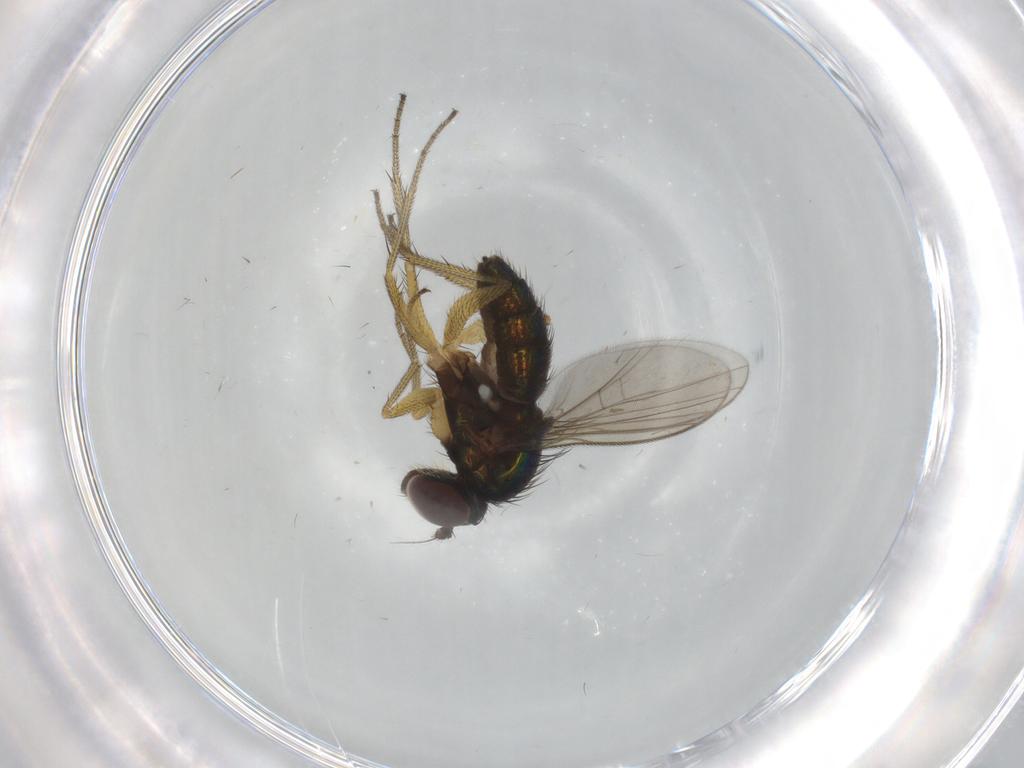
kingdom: Animalia
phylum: Arthropoda
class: Insecta
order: Diptera
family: Dolichopodidae
